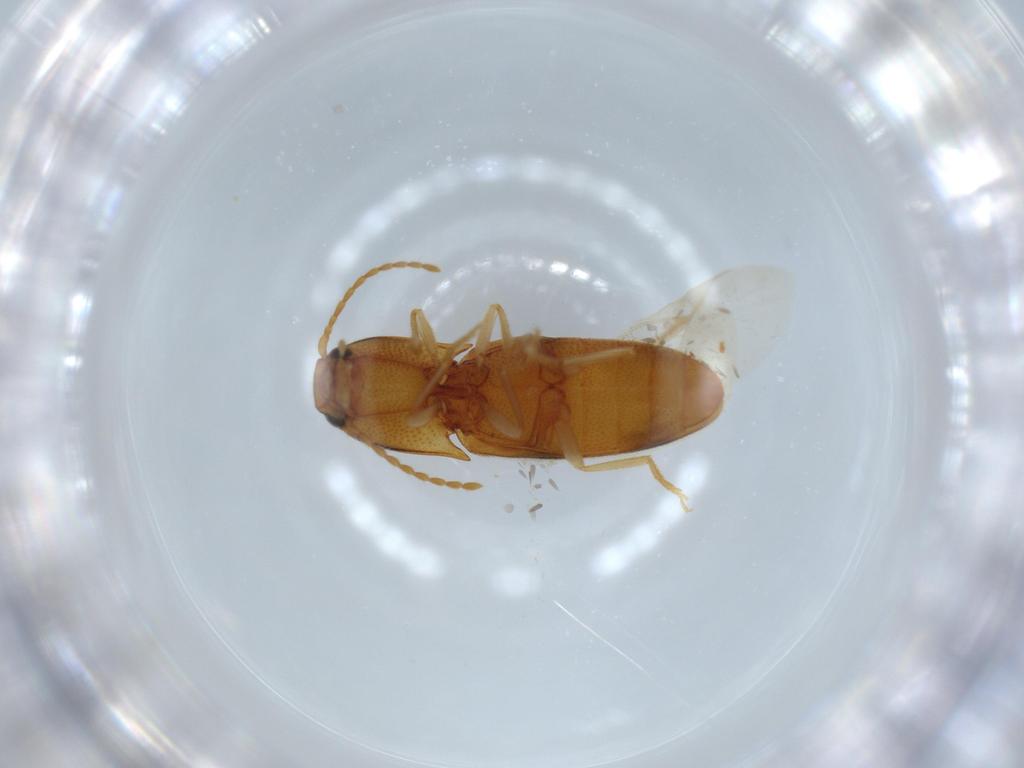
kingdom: Animalia
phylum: Arthropoda
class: Insecta
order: Coleoptera
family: Elateridae
